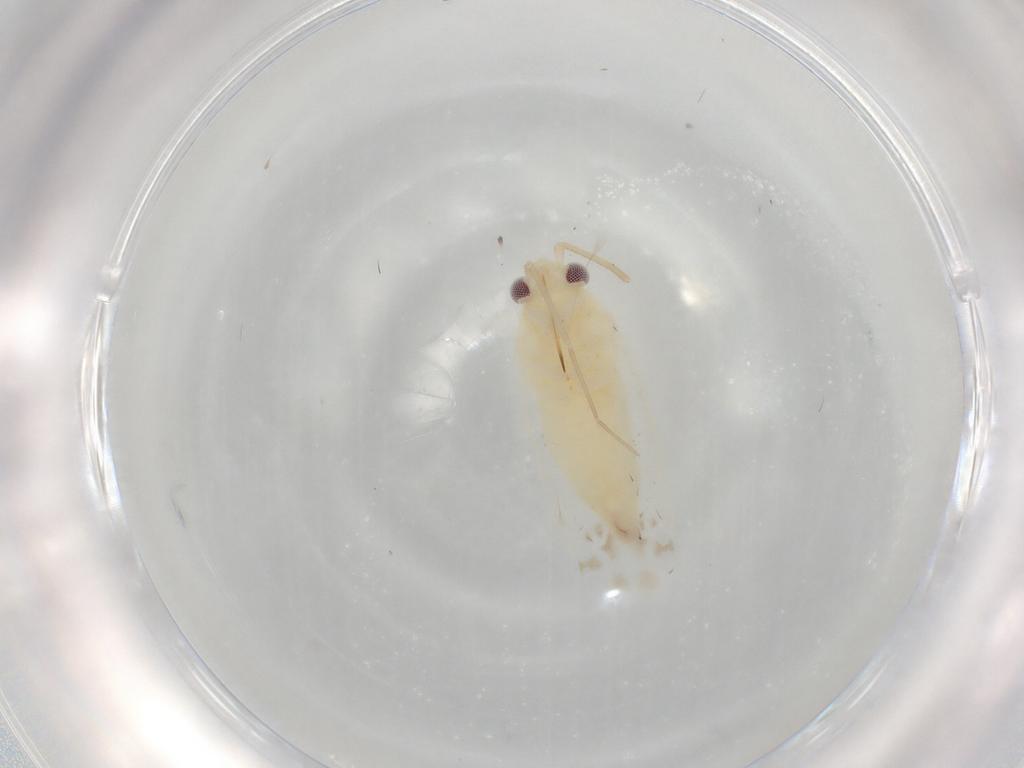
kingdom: Animalia
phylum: Arthropoda
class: Insecta
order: Hemiptera
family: Miridae
